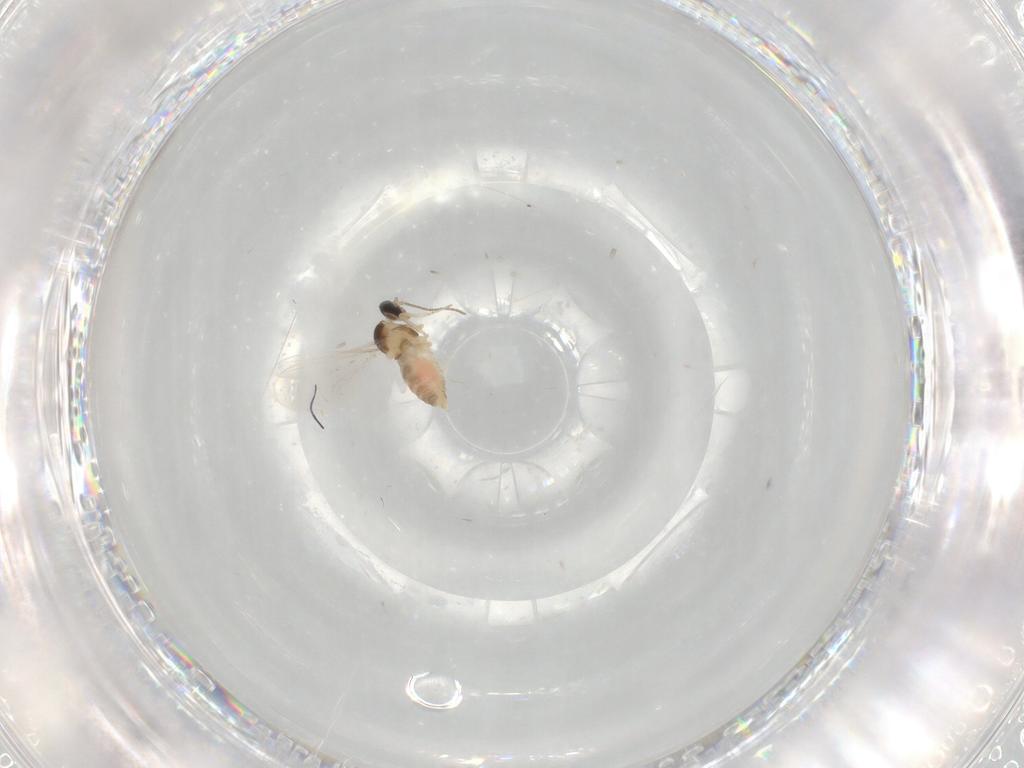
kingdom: Animalia
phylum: Arthropoda
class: Insecta
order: Diptera
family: Cecidomyiidae
